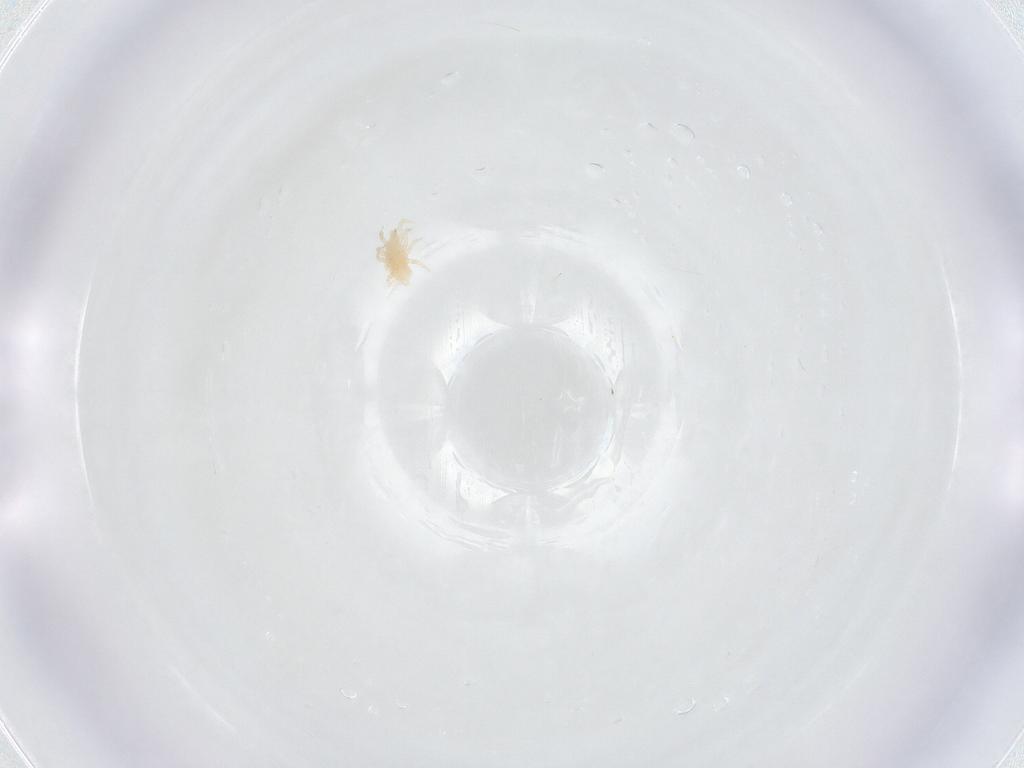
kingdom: Animalia
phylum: Arthropoda
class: Arachnida
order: Mesostigmata
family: Laelapidae
